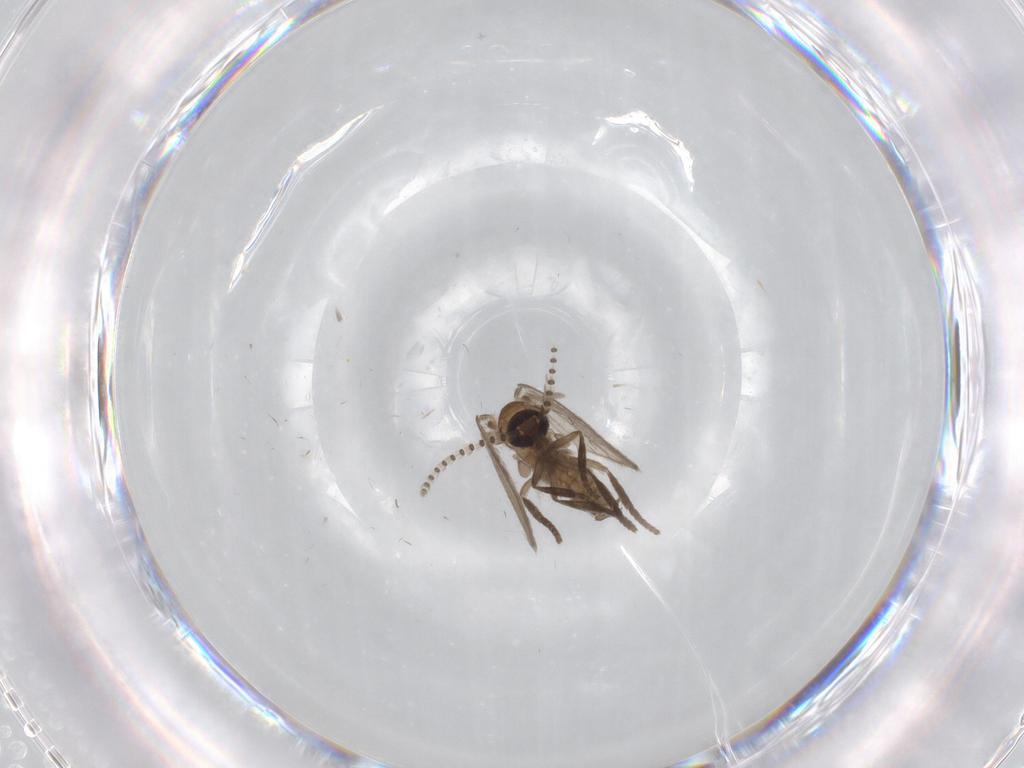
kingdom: Animalia
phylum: Arthropoda
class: Insecta
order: Diptera
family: Psychodidae
